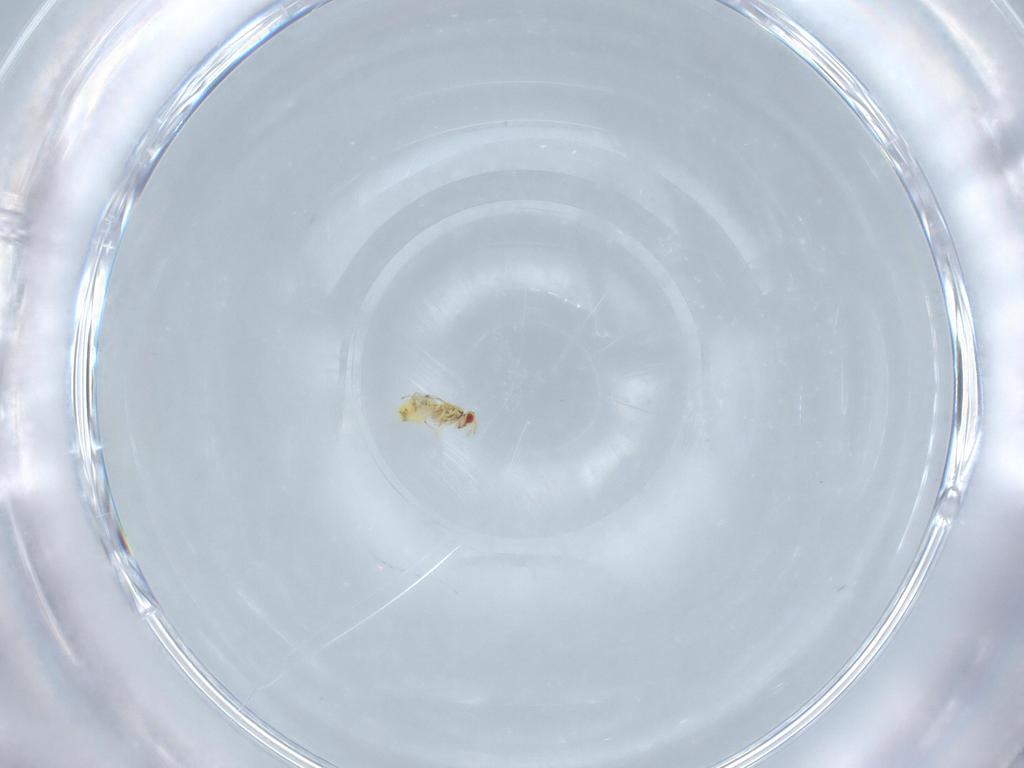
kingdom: Animalia
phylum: Arthropoda
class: Insecta
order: Hymenoptera
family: Trichogrammatidae
